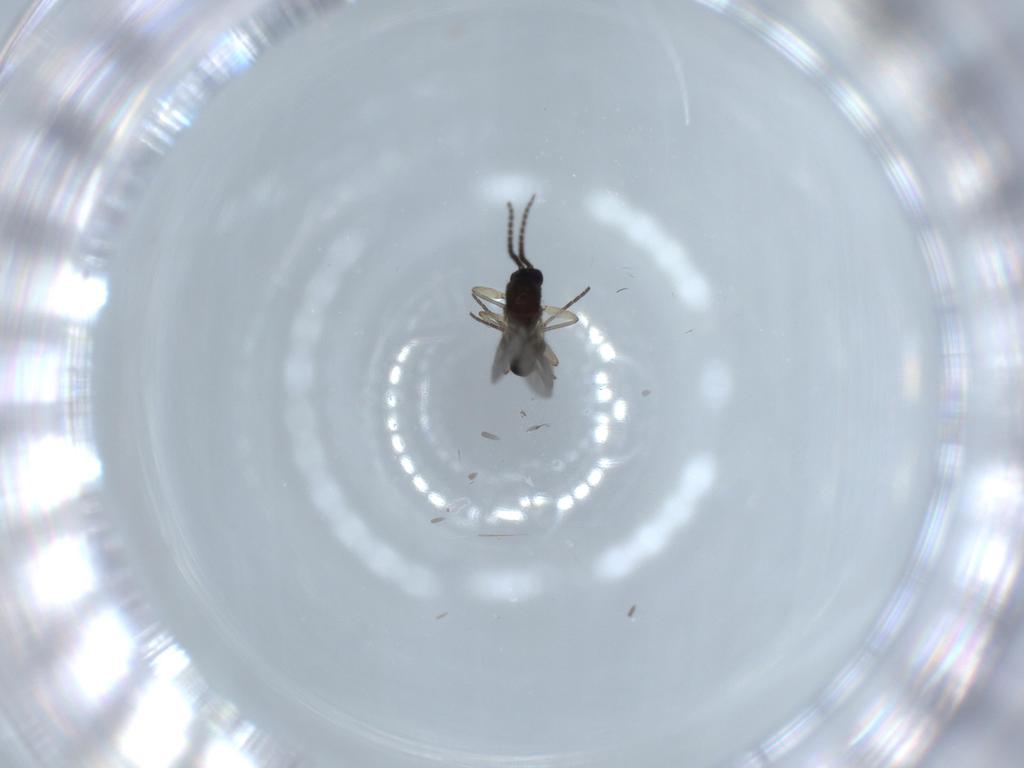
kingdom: Animalia
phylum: Arthropoda
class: Insecta
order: Diptera
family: Sciaridae
